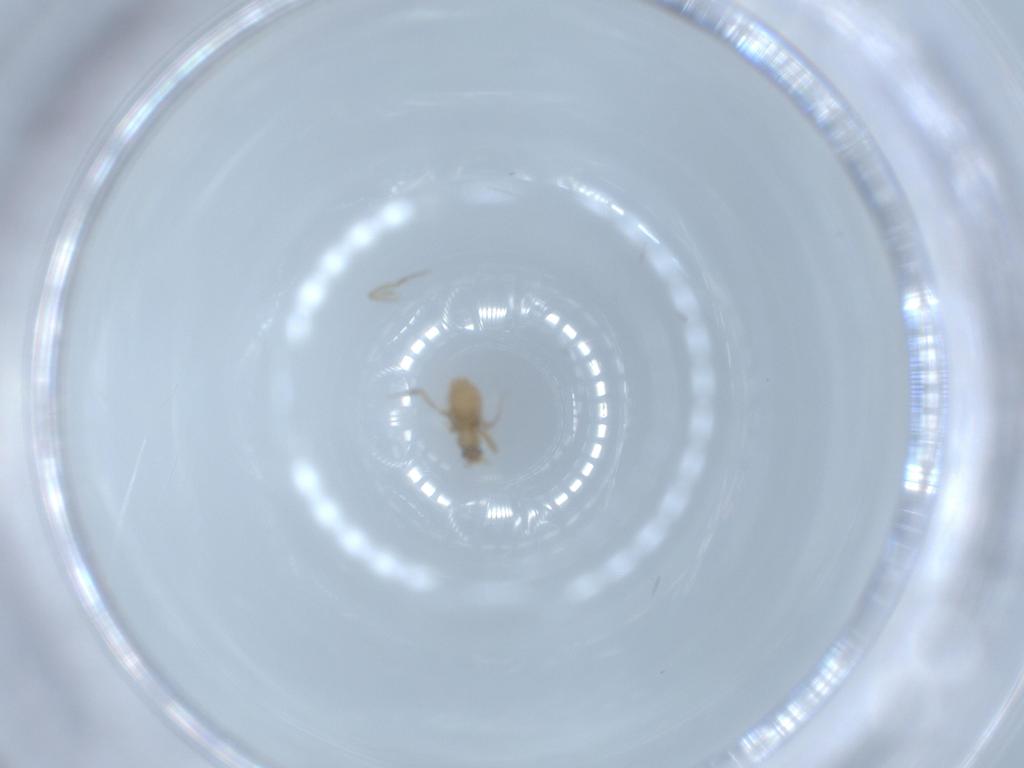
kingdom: Animalia
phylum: Arthropoda
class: Insecta
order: Diptera
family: Phoridae
